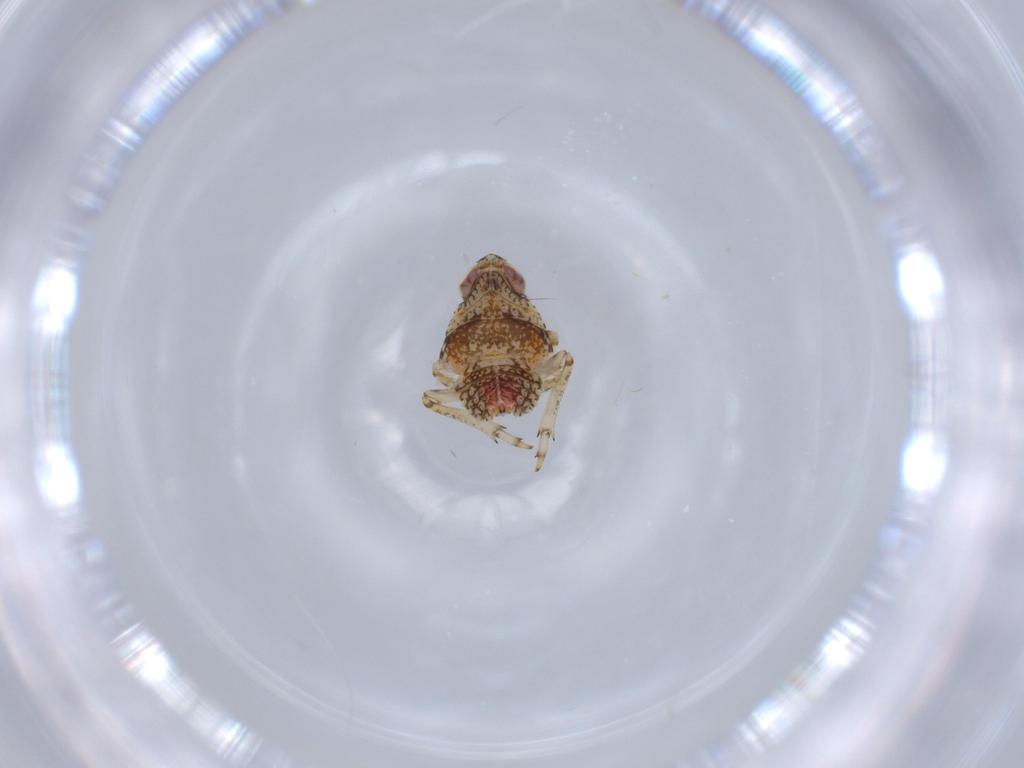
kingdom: Animalia
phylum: Arthropoda
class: Insecta
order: Hemiptera
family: Issidae
